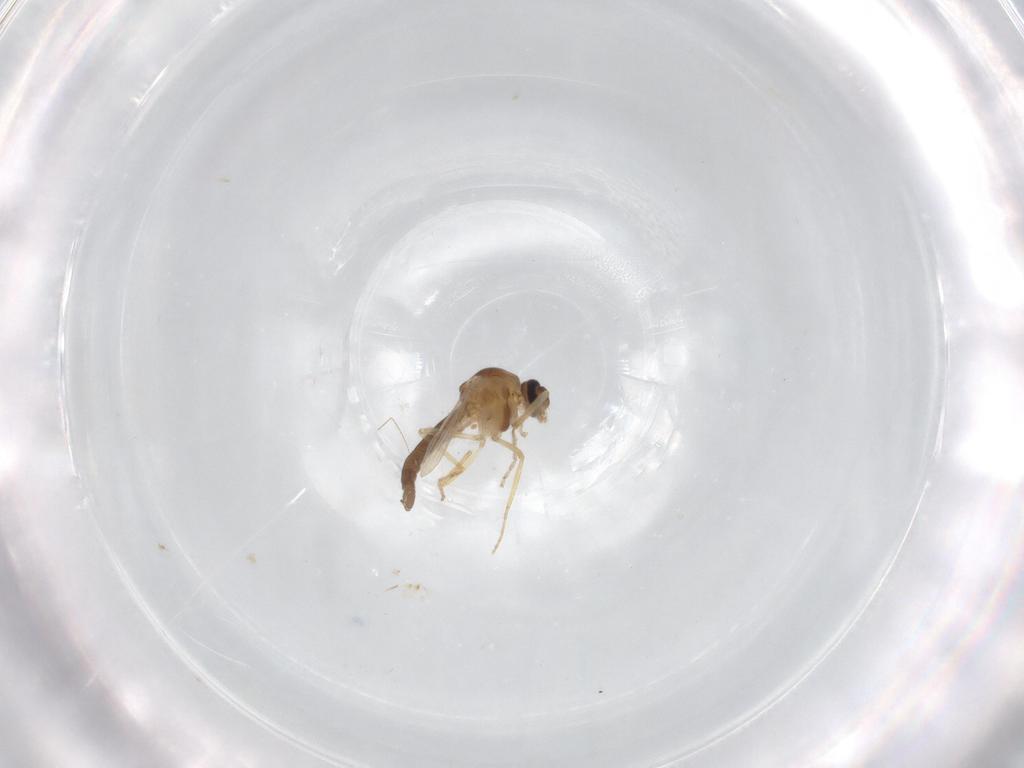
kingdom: Animalia
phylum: Arthropoda
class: Insecta
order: Diptera
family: Ceratopogonidae
